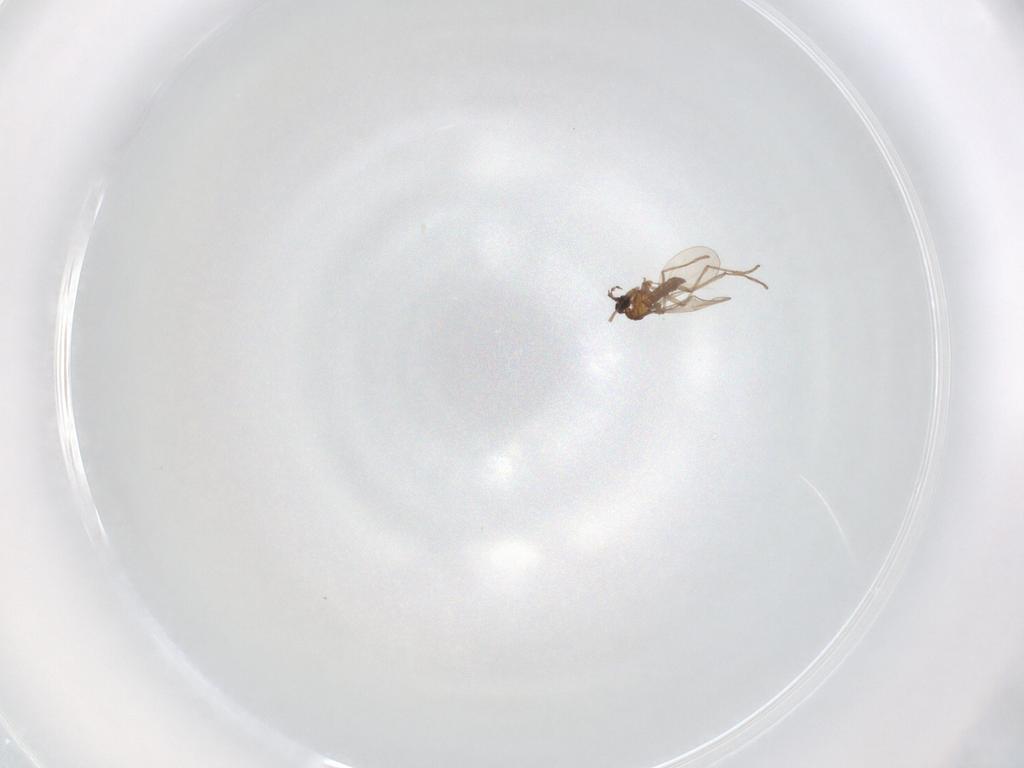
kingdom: Animalia
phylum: Arthropoda
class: Insecta
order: Diptera
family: Cecidomyiidae
